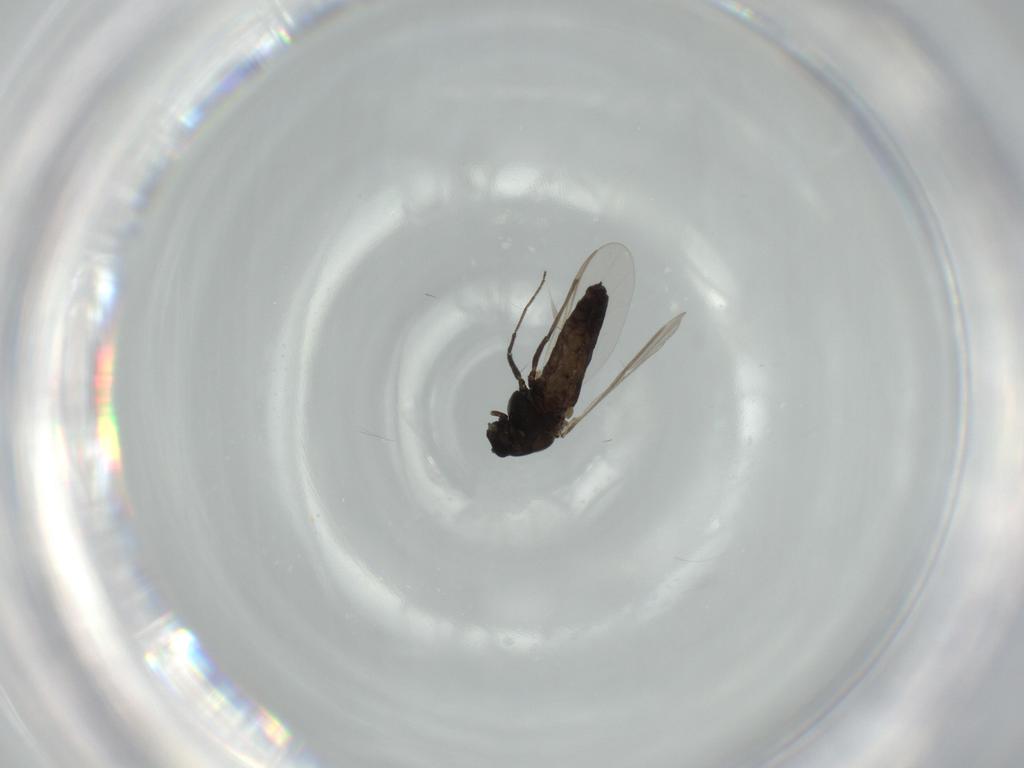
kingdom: Animalia
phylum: Arthropoda
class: Insecta
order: Diptera
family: Chironomidae
